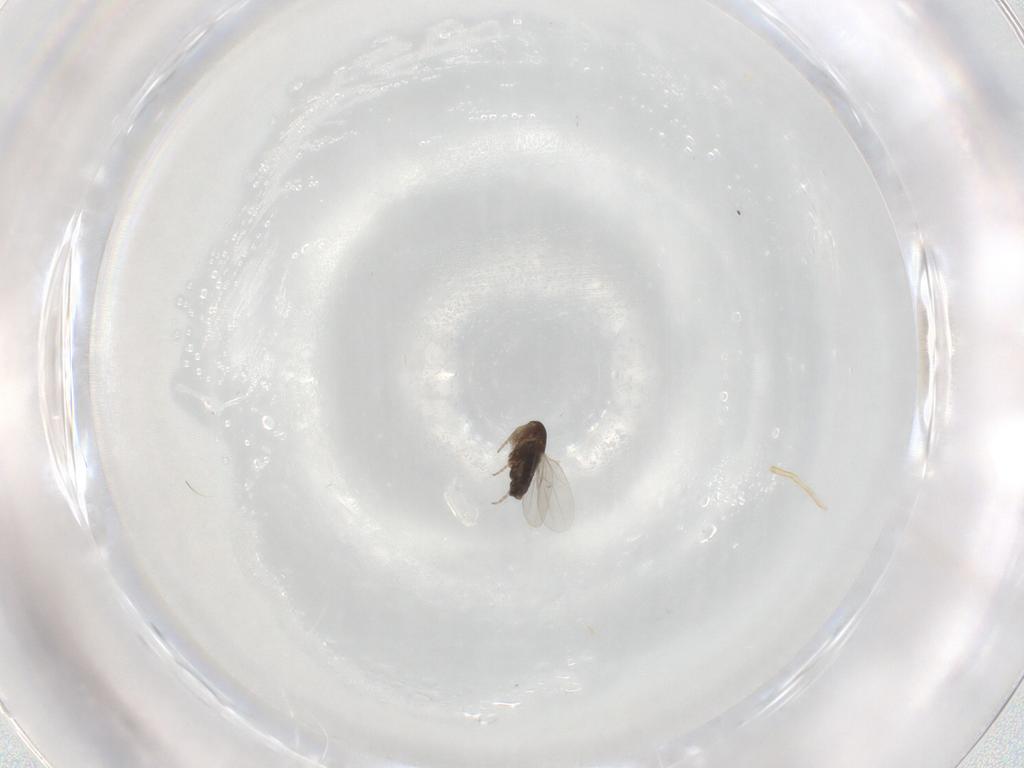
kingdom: Animalia
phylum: Arthropoda
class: Insecta
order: Diptera
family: Phoridae
